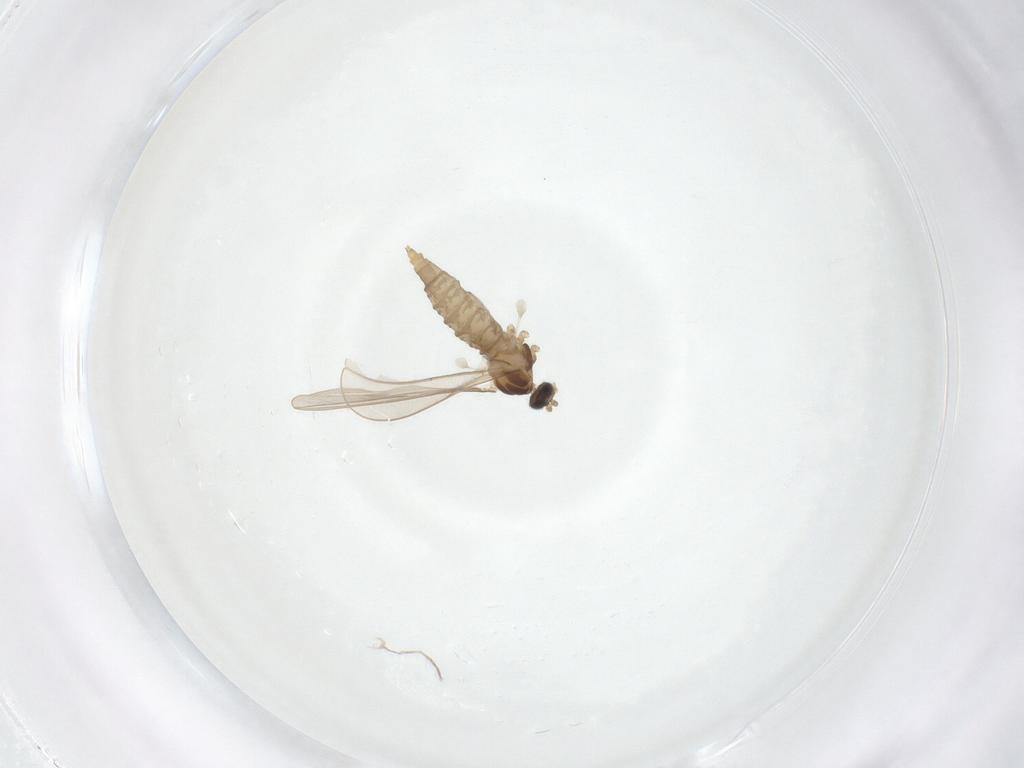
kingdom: Animalia
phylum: Arthropoda
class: Insecta
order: Diptera
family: Cecidomyiidae
